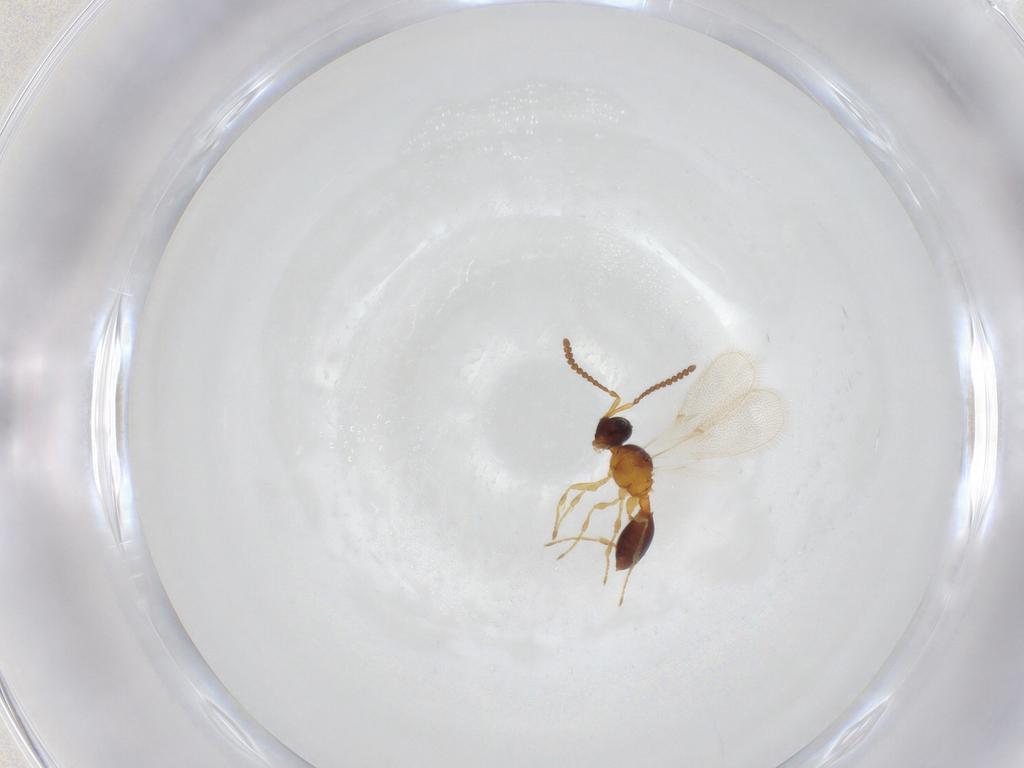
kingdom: Animalia
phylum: Arthropoda
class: Insecta
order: Hymenoptera
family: Diapriidae
